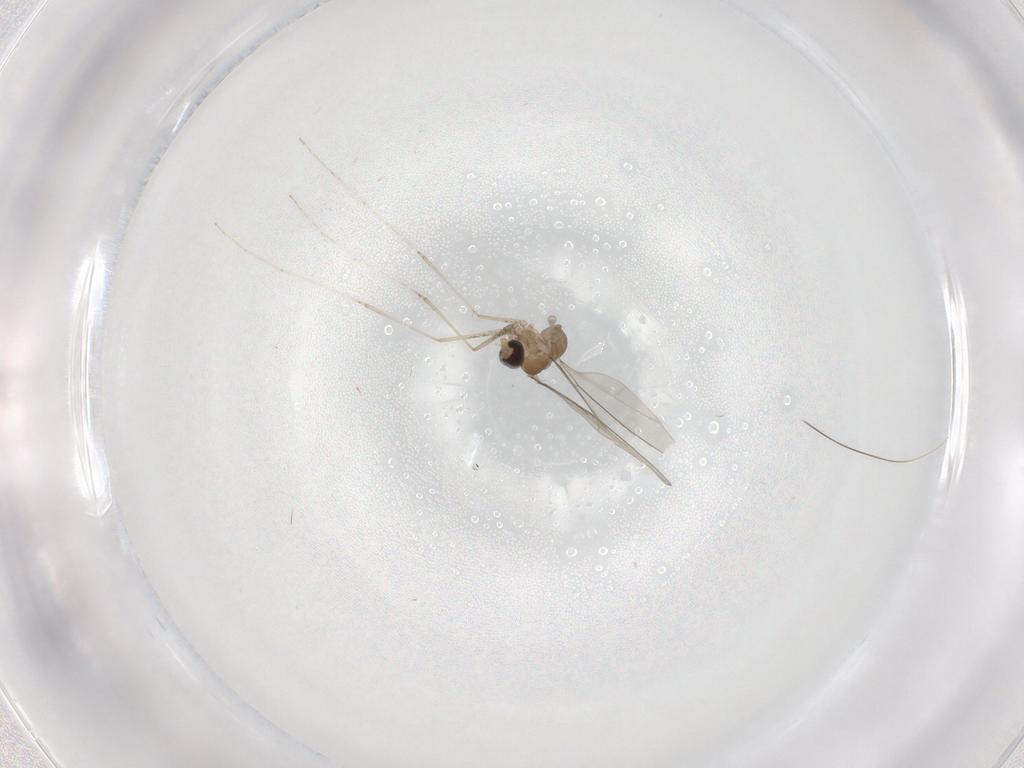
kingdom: Animalia
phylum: Arthropoda
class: Insecta
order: Diptera
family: Cecidomyiidae
